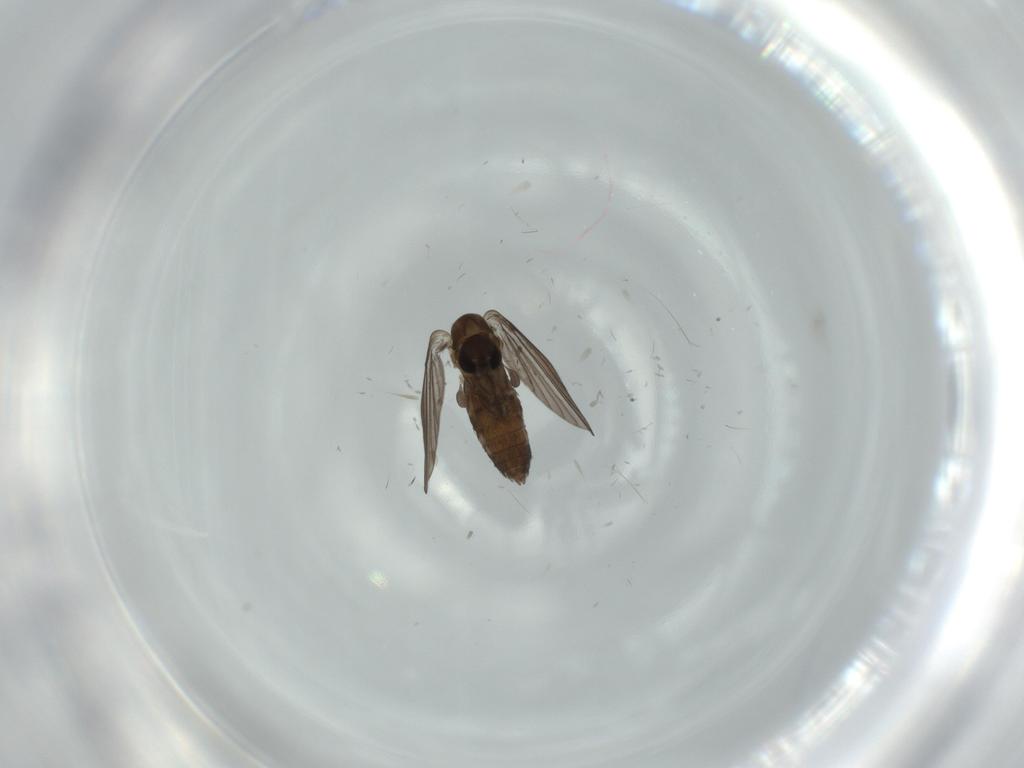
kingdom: Animalia
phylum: Arthropoda
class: Insecta
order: Diptera
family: Psychodidae
